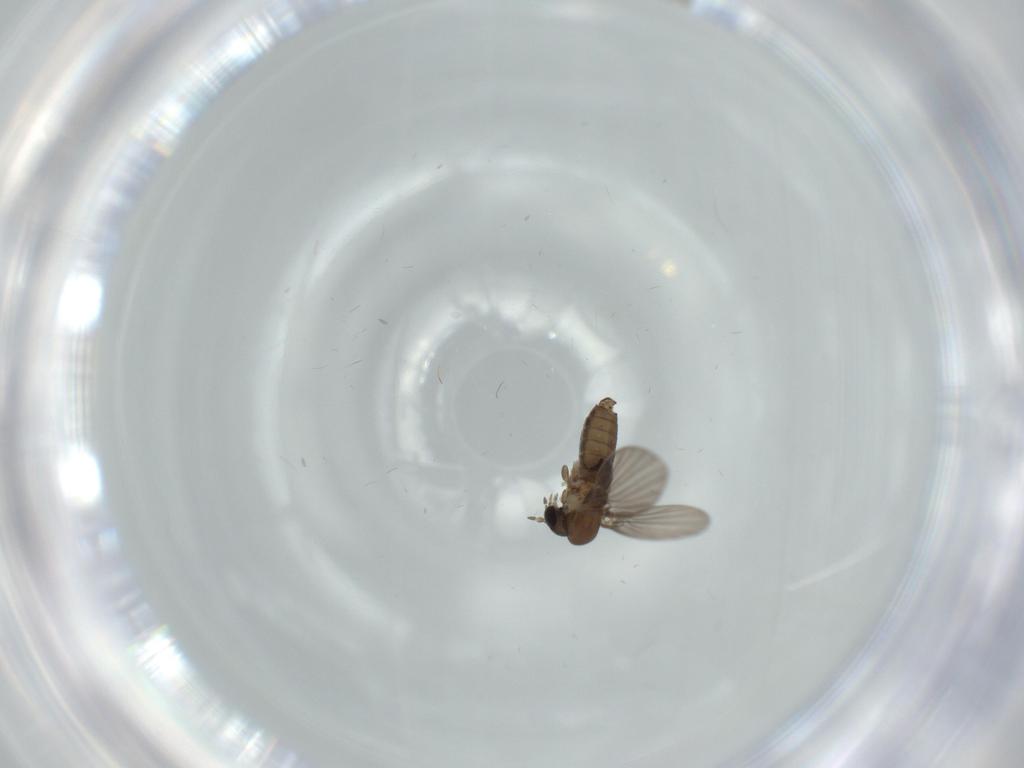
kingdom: Animalia
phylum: Arthropoda
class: Insecta
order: Diptera
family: Psychodidae
